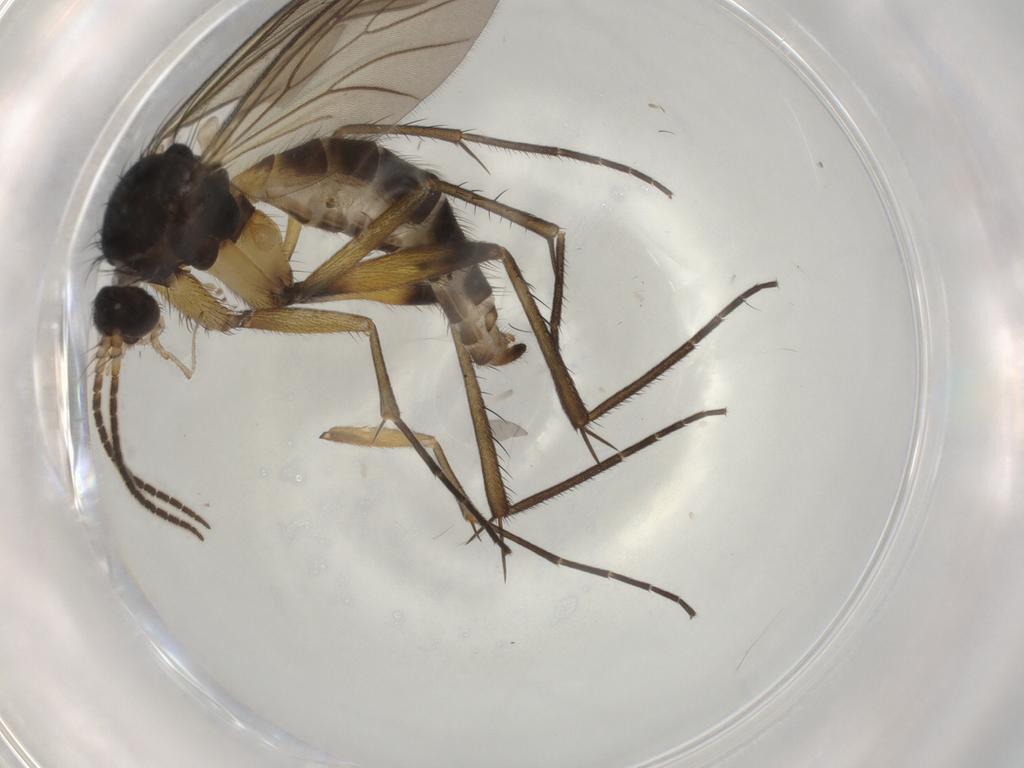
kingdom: Animalia
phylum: Arthropoda
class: Insecta
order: Diptera
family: Mycetophilidae
